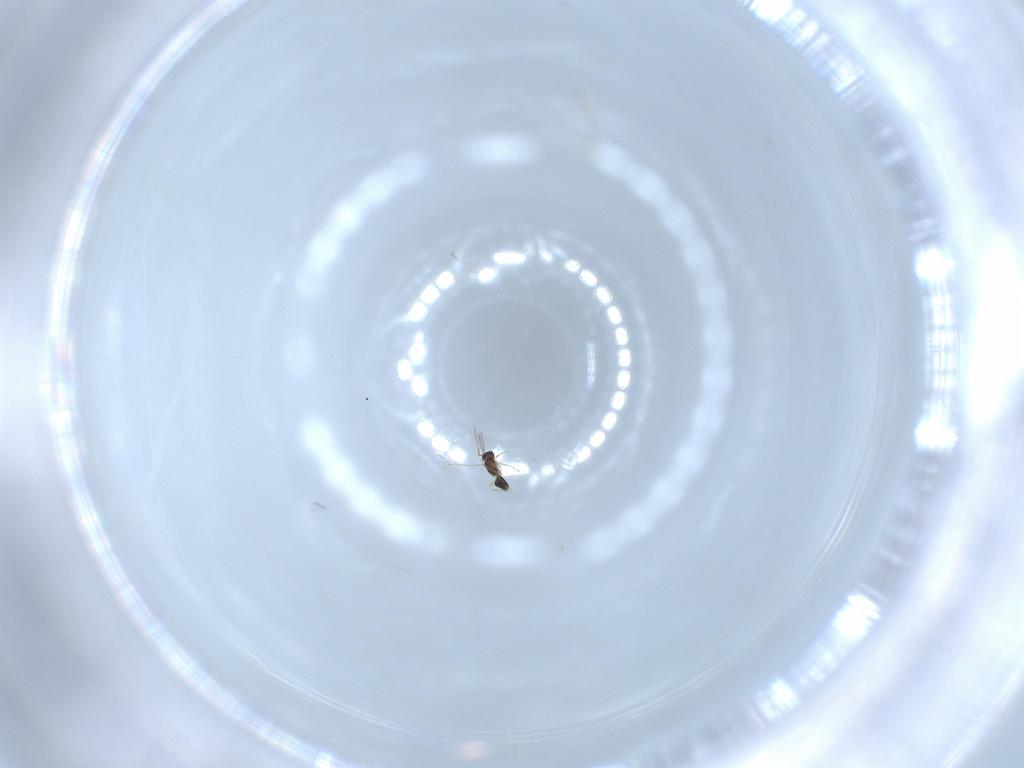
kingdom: Animalia
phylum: Arthropoda
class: Insecta
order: Hymenoptera
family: Mymaridae
